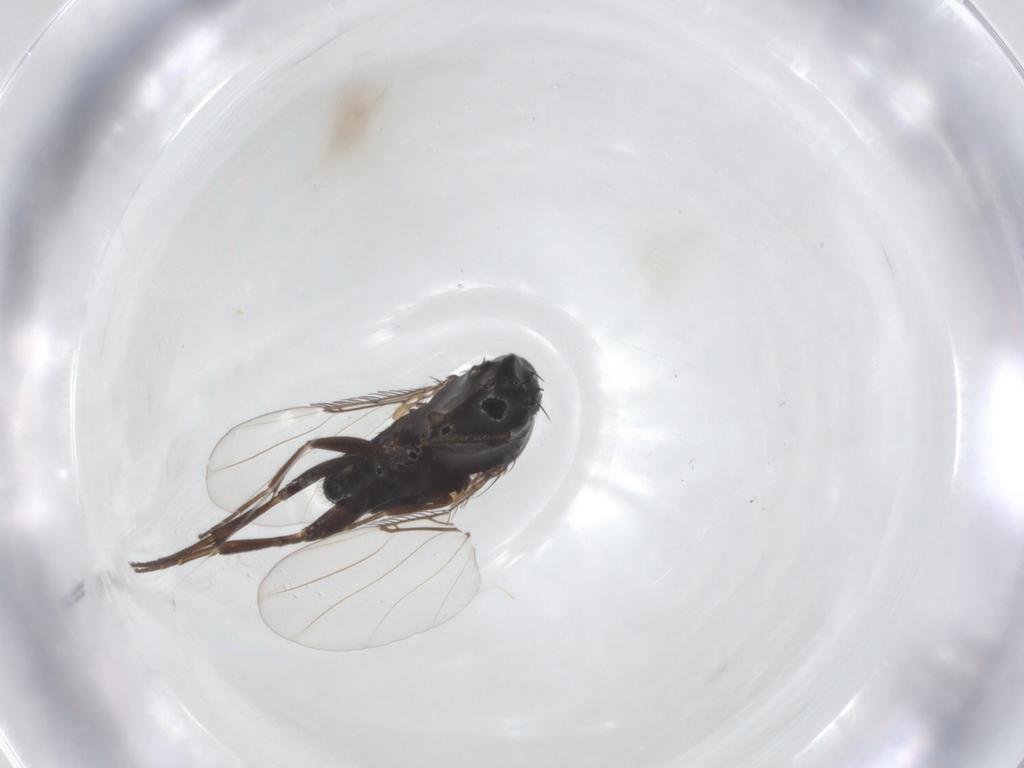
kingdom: Animalia
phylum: Arthropoda
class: Insecta
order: Diptera
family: Phoridae
